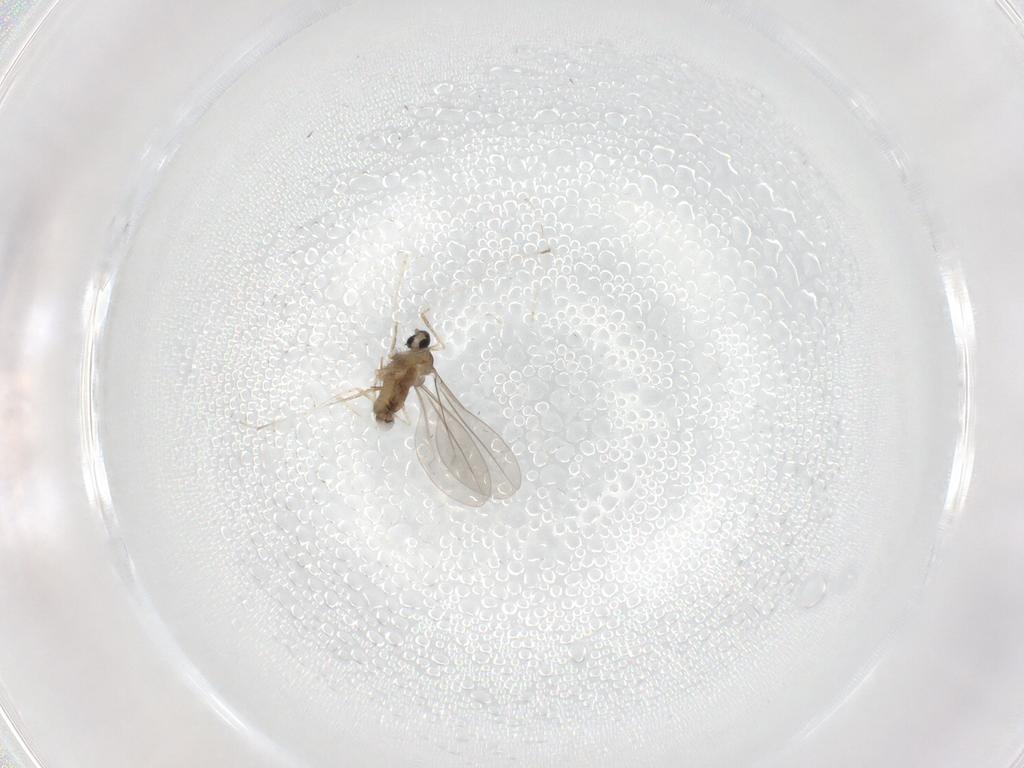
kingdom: Animalia
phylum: Arthropoda
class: Insecta
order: Diptera
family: Cecidomyiidae
